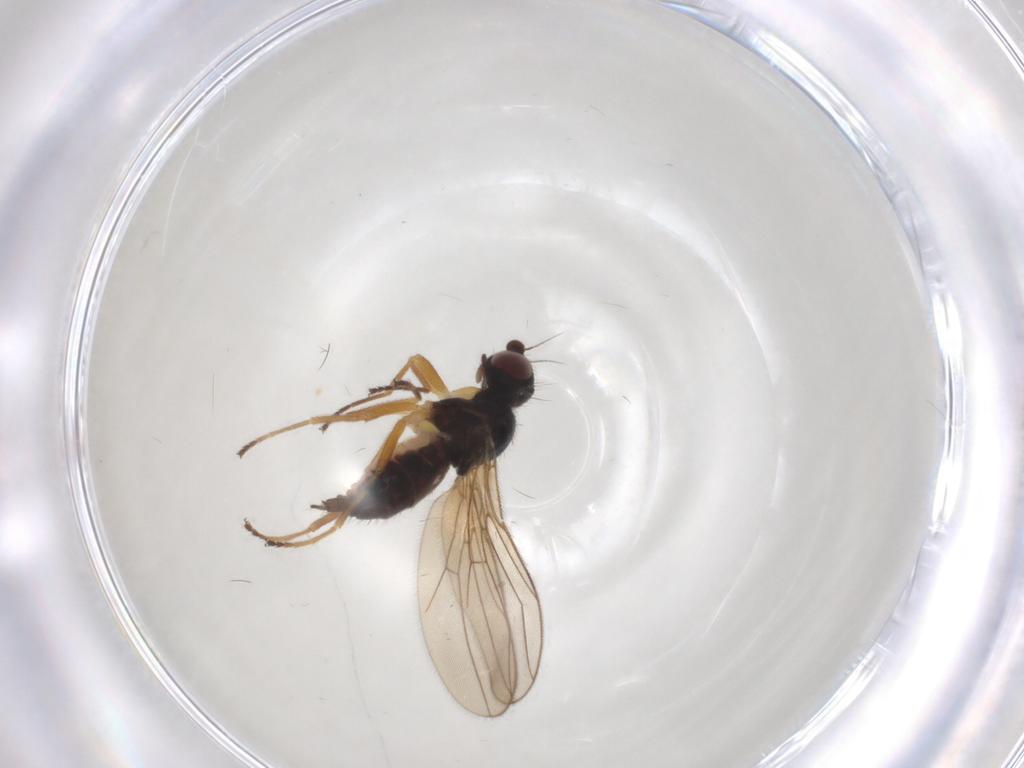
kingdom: Animalia
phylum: Arthropoda
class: Insecta
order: Diptera
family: Chloropidae
